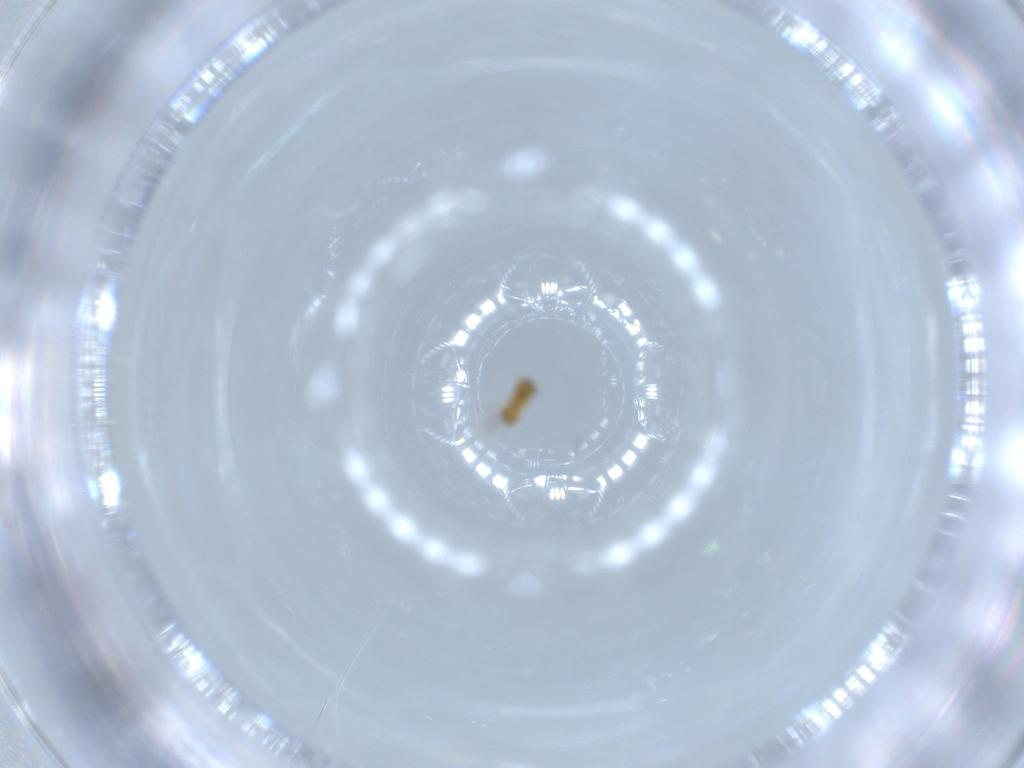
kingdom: Animalia
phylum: Arthropoda
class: Insecta
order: Hymenoptera
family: Platygastridae
